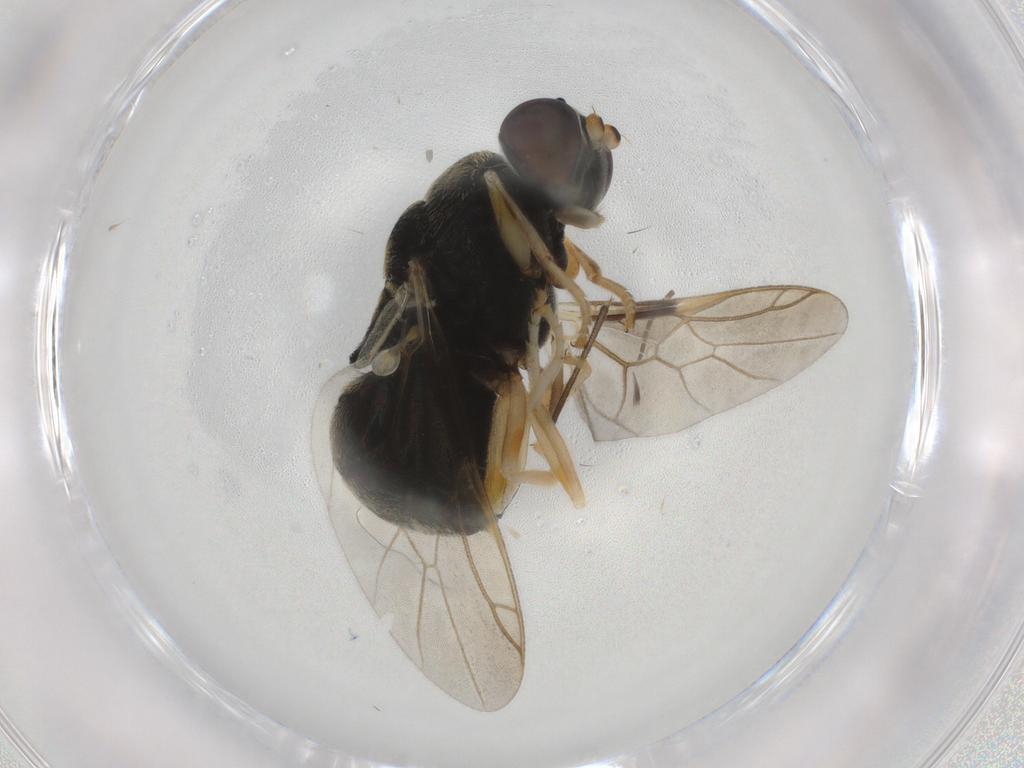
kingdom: Animalia
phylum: Arthropoda
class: Insecta
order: Diptera
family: Stratiomyidae
